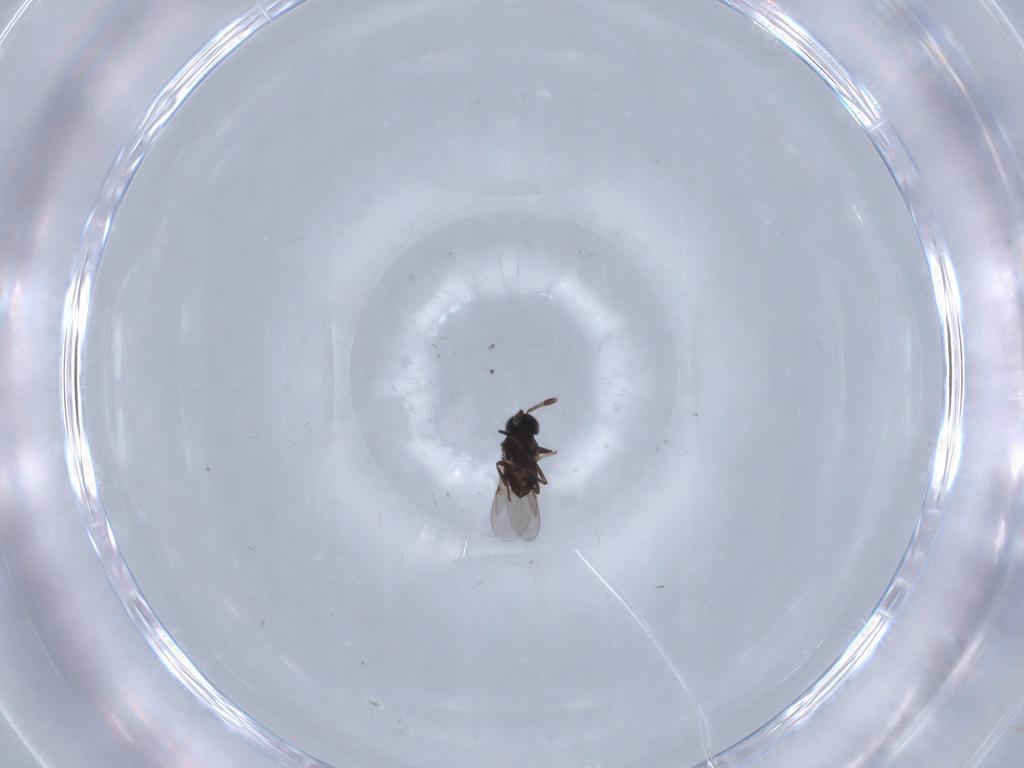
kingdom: Animalia
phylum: Arthropoda
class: Insecta
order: Hymenoptera
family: Encyrtidae
